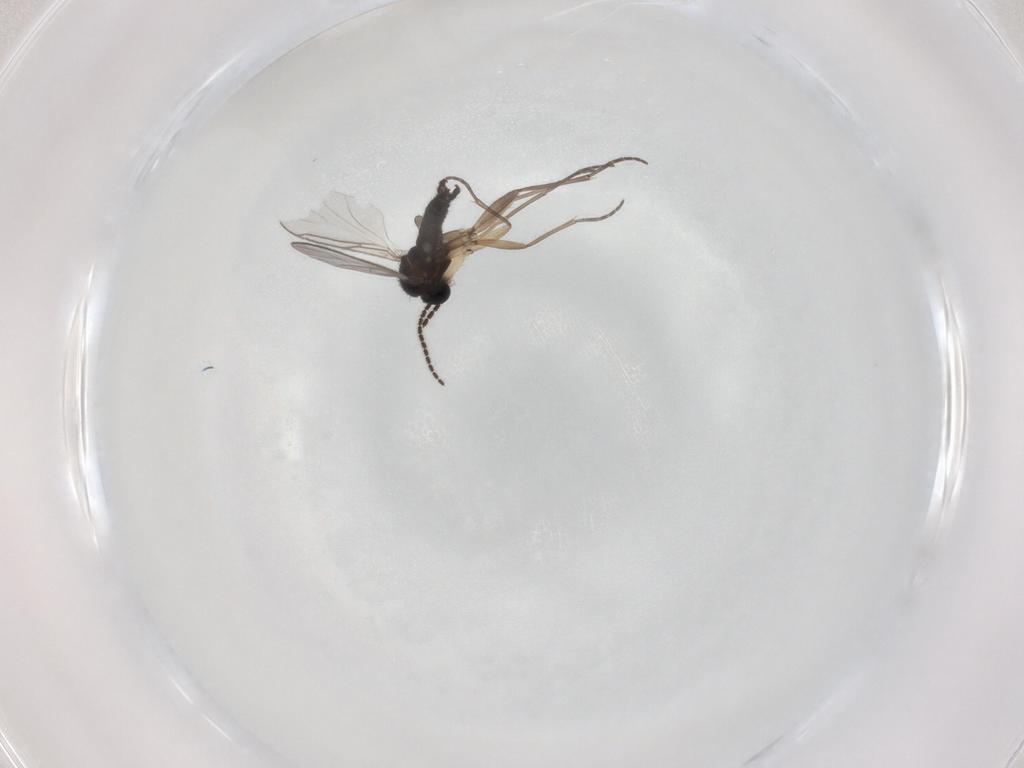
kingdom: Animalia
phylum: Arthropoda
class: Insecta
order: Diptera
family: Sciaridae
